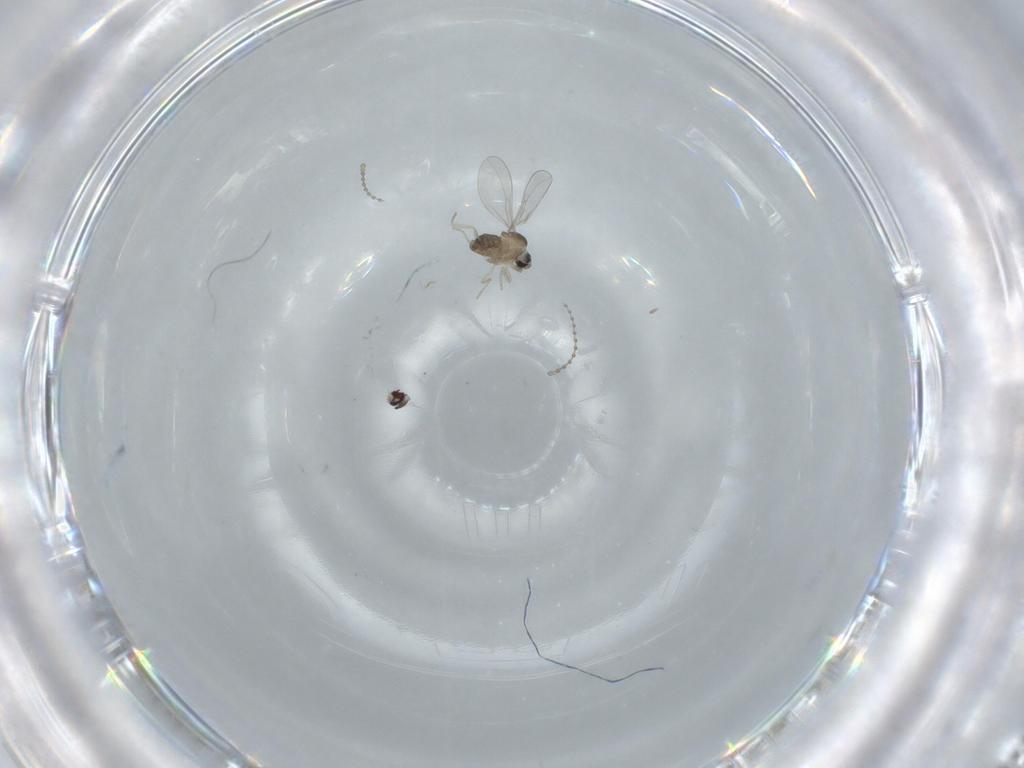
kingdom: Animalia
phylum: Arthropoda
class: Insecta
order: Diptera
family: Cecidomyiidae
